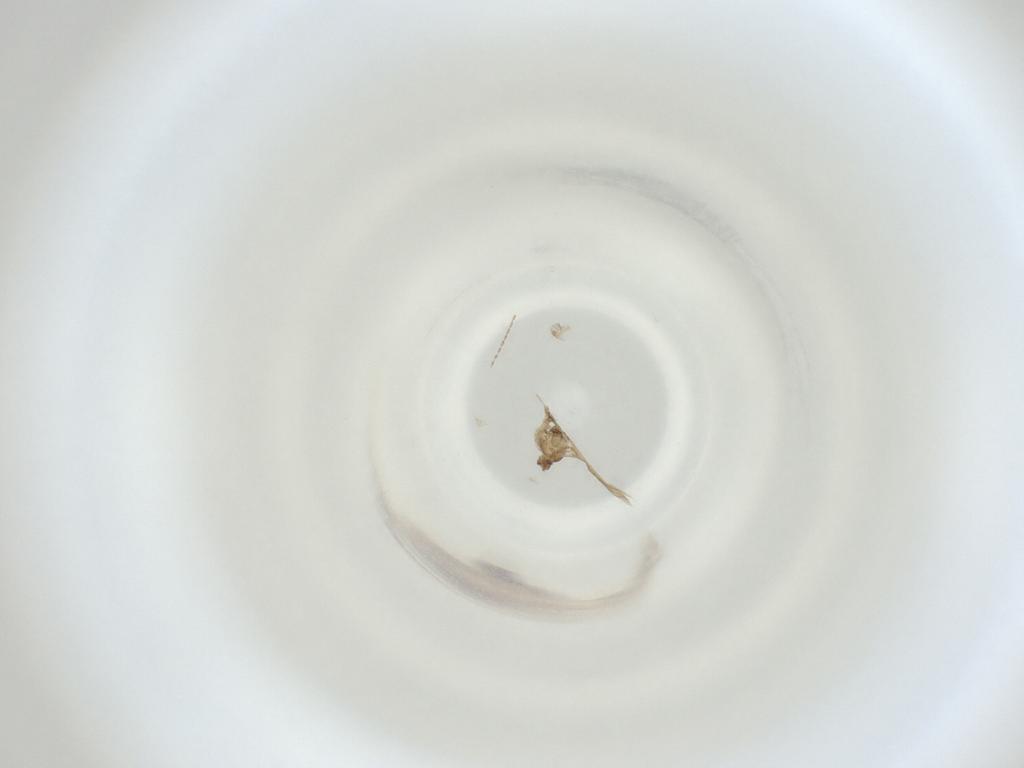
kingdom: Animalia
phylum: Arthropoda
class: Insecta
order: Diptera
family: Cecidomyiidae
